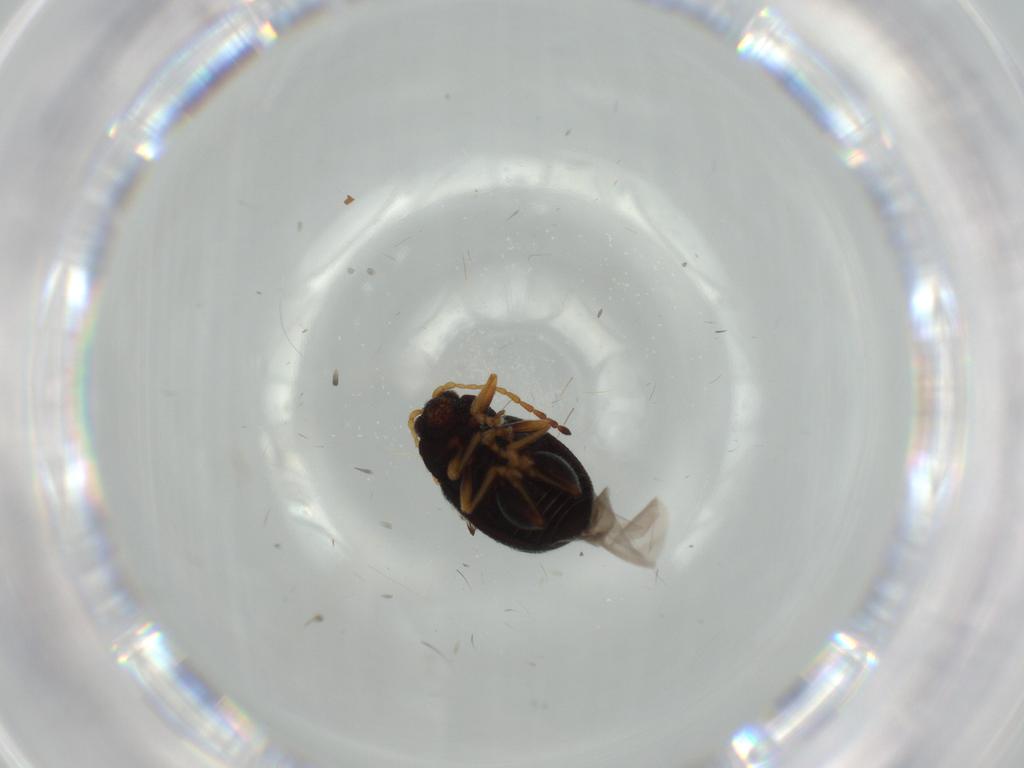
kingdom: Animalia
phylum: Arthropoda
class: Insecta
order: Coleoptera
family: Chrysomelidae
